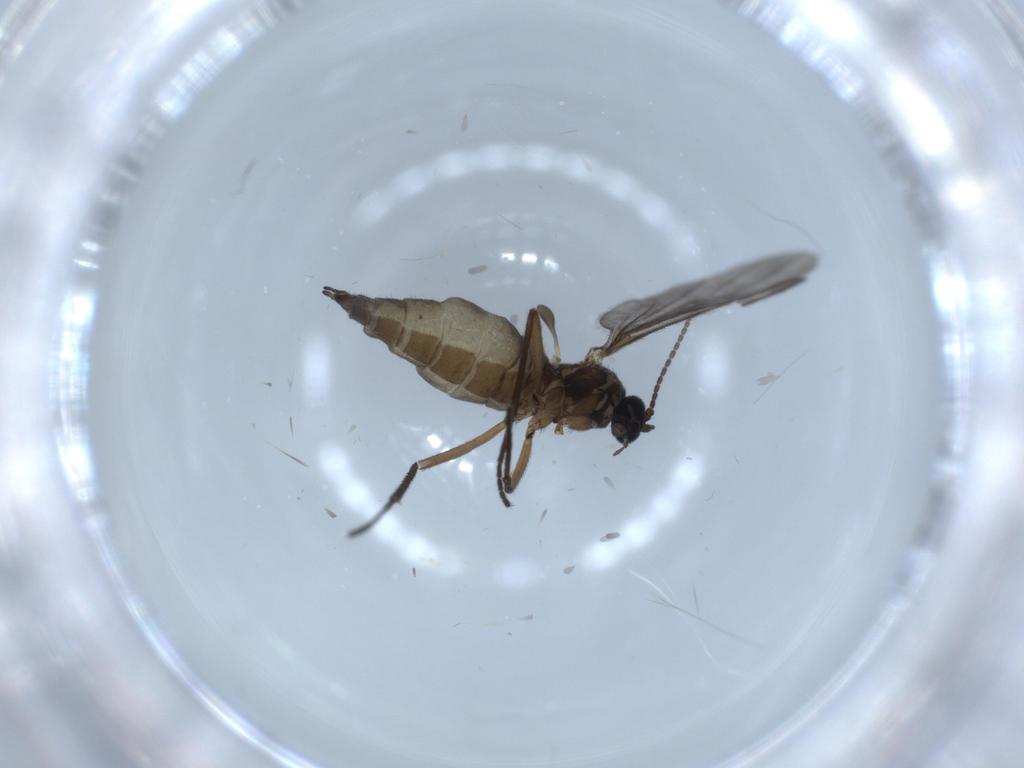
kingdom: Animalia
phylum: Arthropoda
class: Insecta
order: Diptera
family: Sciaridae
